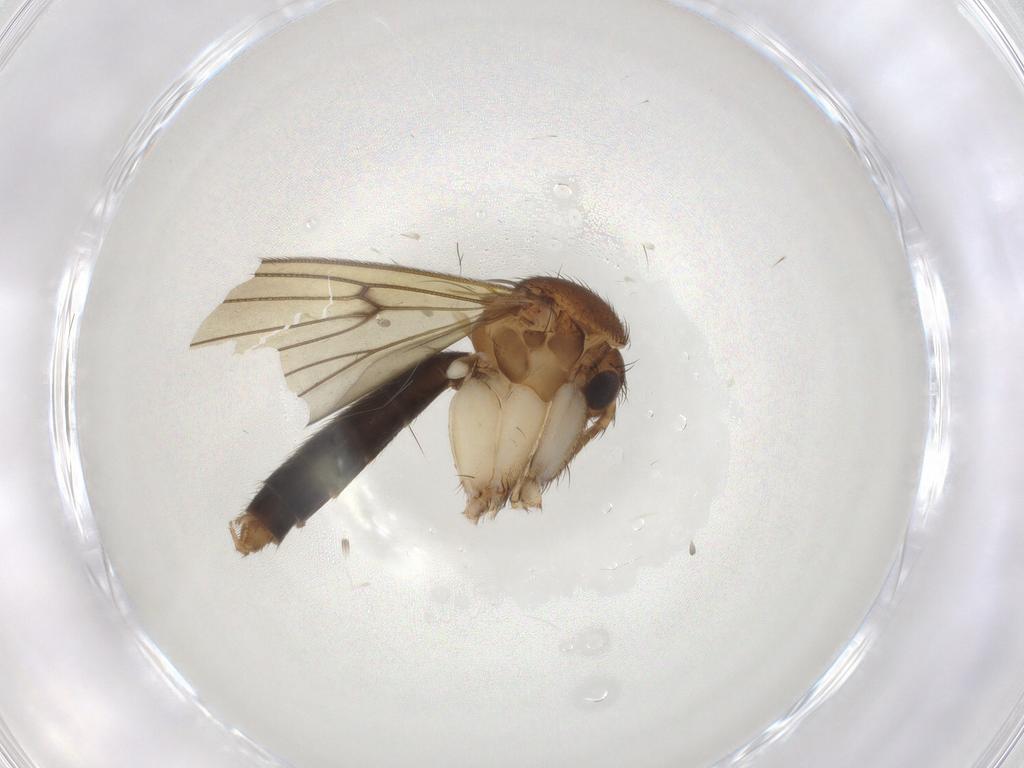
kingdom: Animalia
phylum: Arthropoda
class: Insecta
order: Diptera
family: Mycetophilidae
